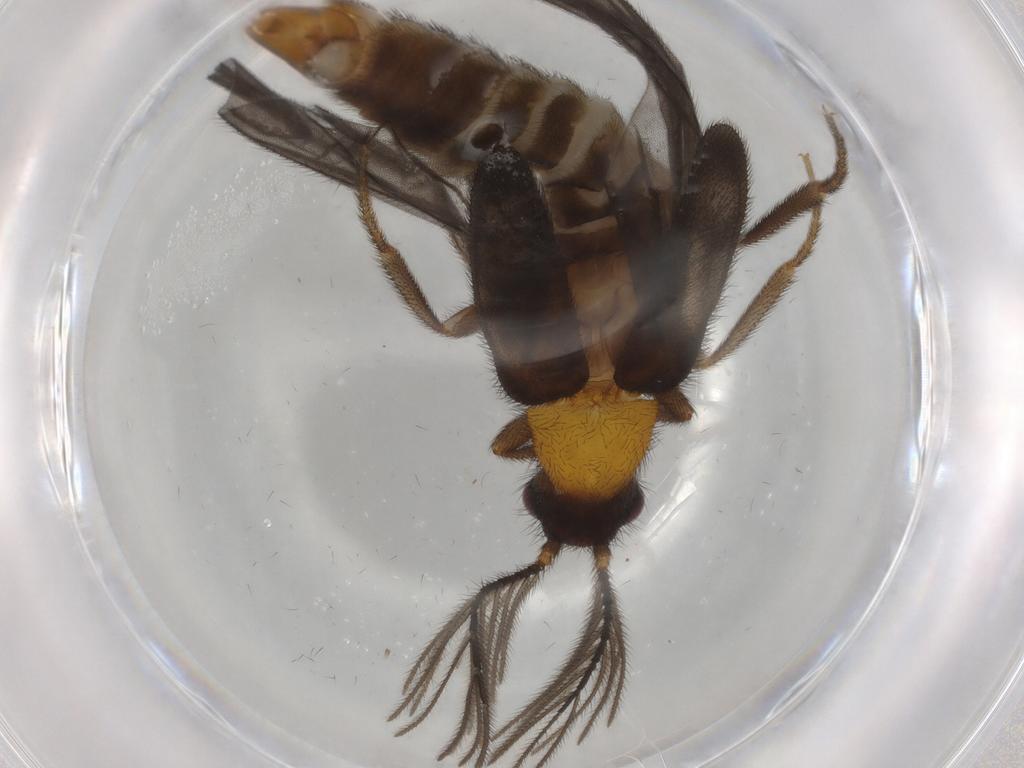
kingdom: Animalia
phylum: Arthropoda
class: Insecta
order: Coleoptera
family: Phengodidae
